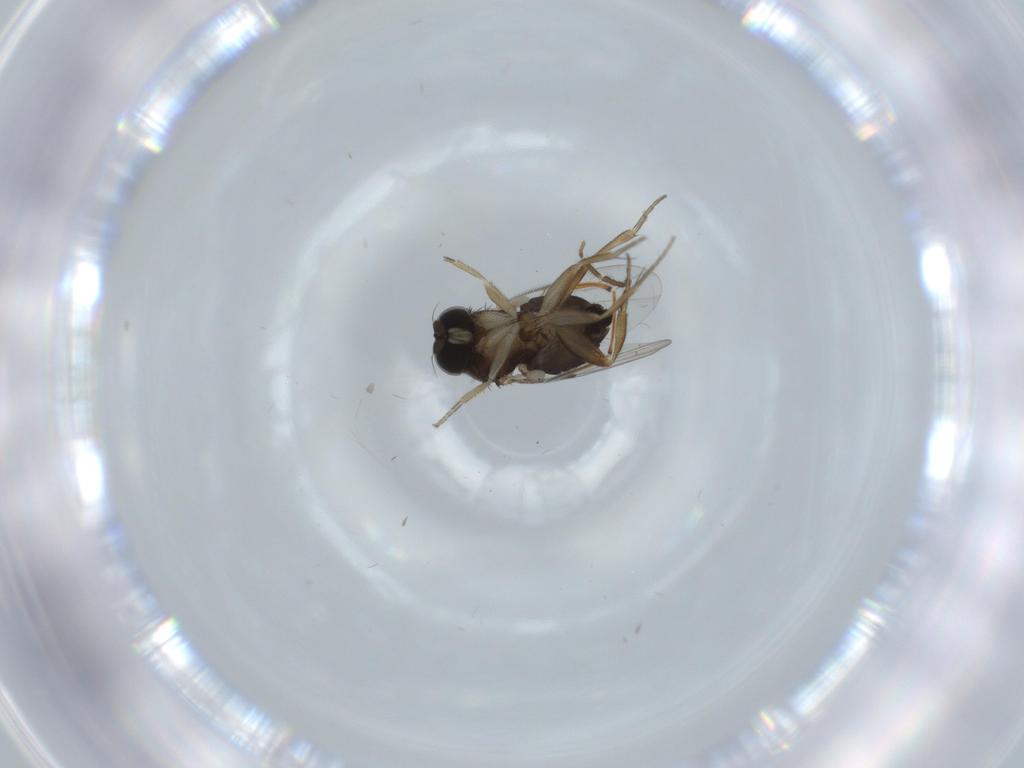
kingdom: Animalia
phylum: Arthropoda
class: Insecta
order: Diptera
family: Phoridae
